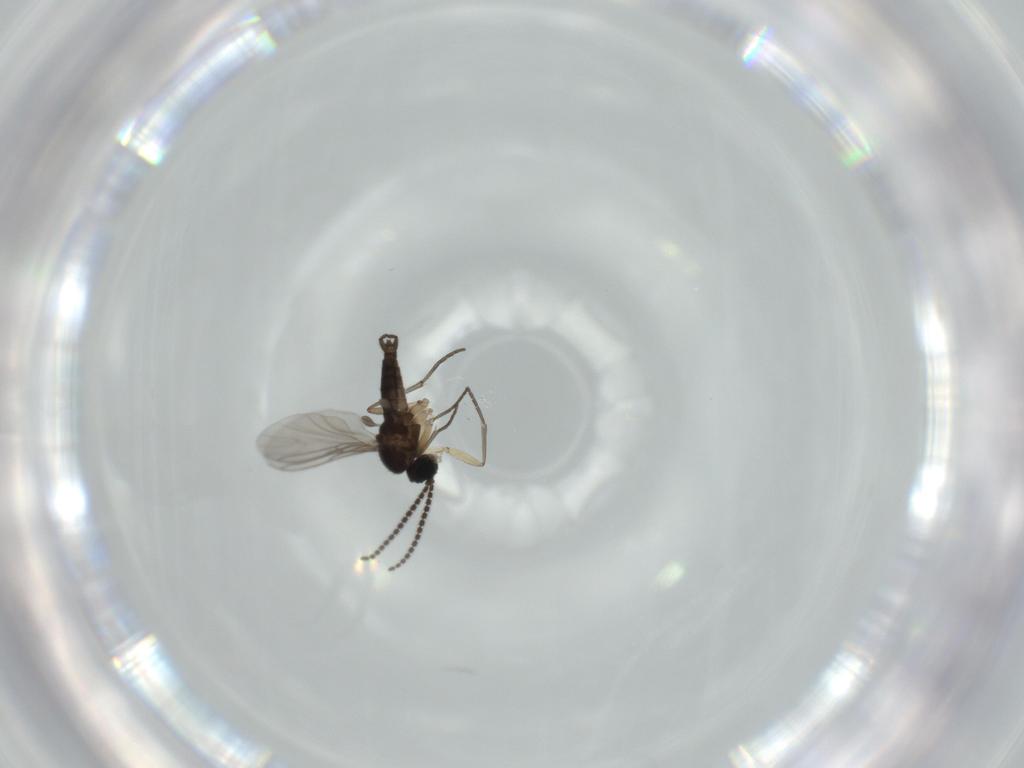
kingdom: Animalia
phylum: Arthropoda
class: Insecta
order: Diptera
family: Sciaridae
